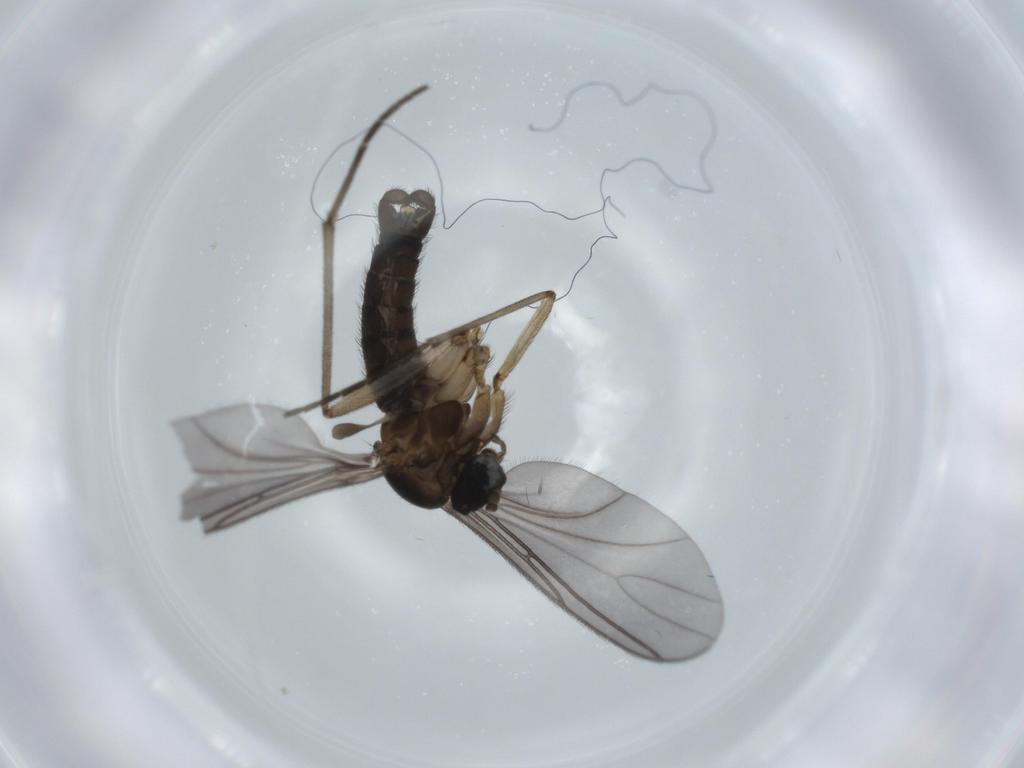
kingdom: Animalia
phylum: Arthropoda
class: Insecta
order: Diptera
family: Sciaridae
